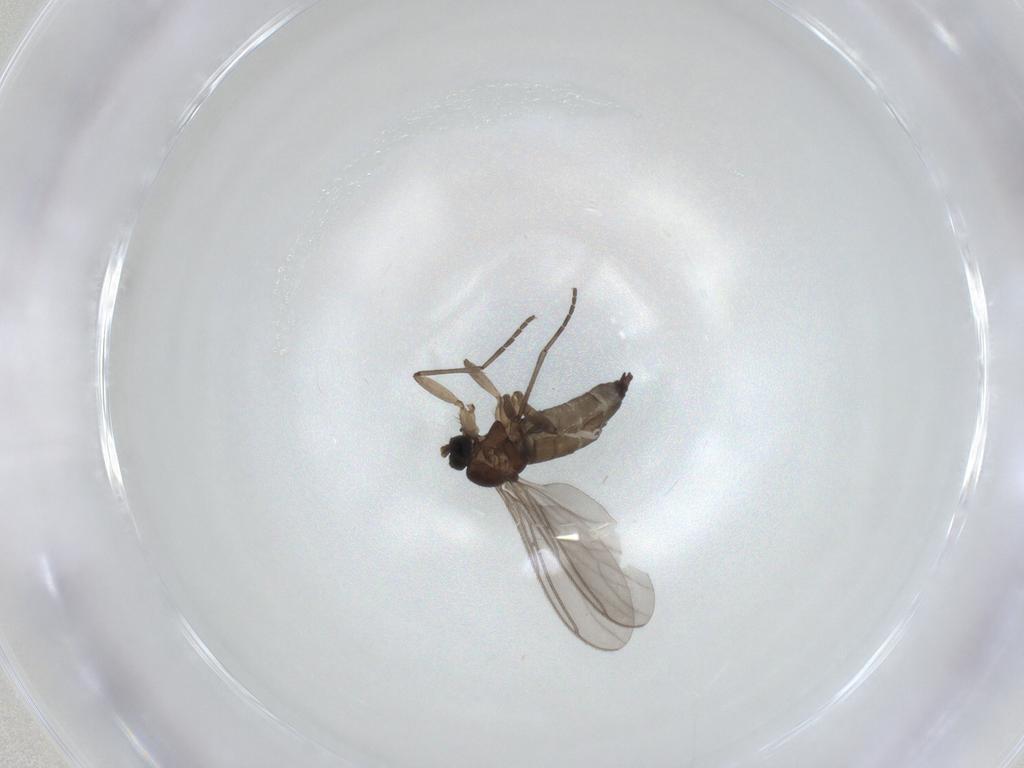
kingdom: Animalia
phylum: Arthropoda
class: Insecta
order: Diptera
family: Sciaridae
